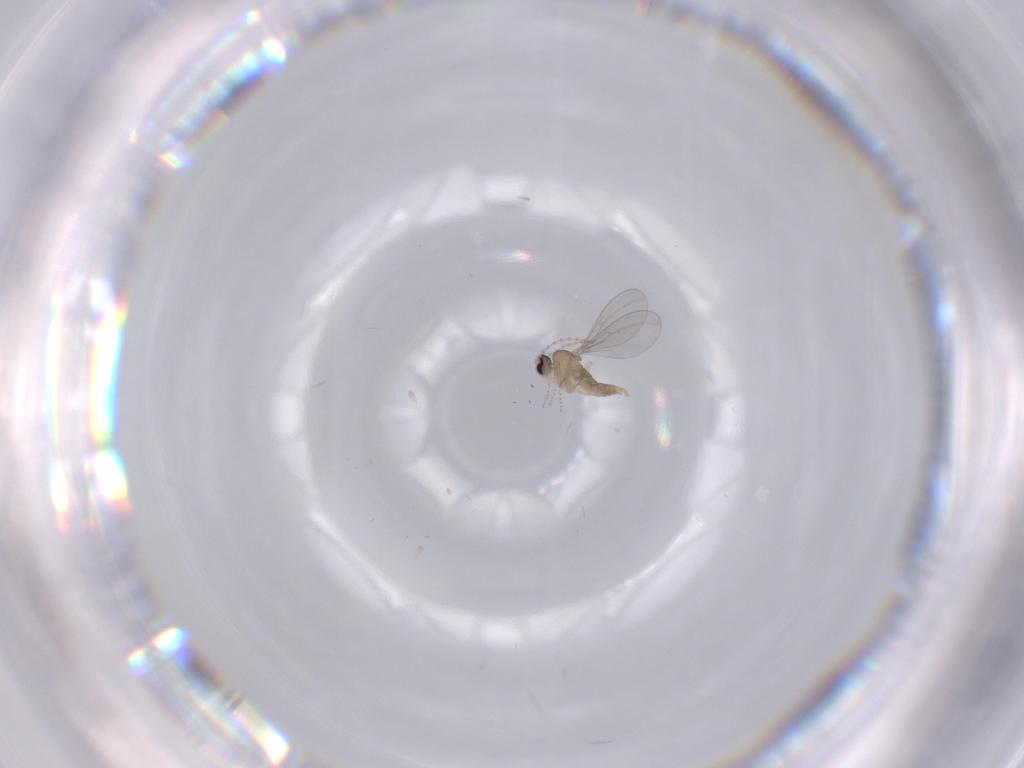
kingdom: Animalia
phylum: Arthropoda
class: Insecta
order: Diptera
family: Cecidomyiidae
